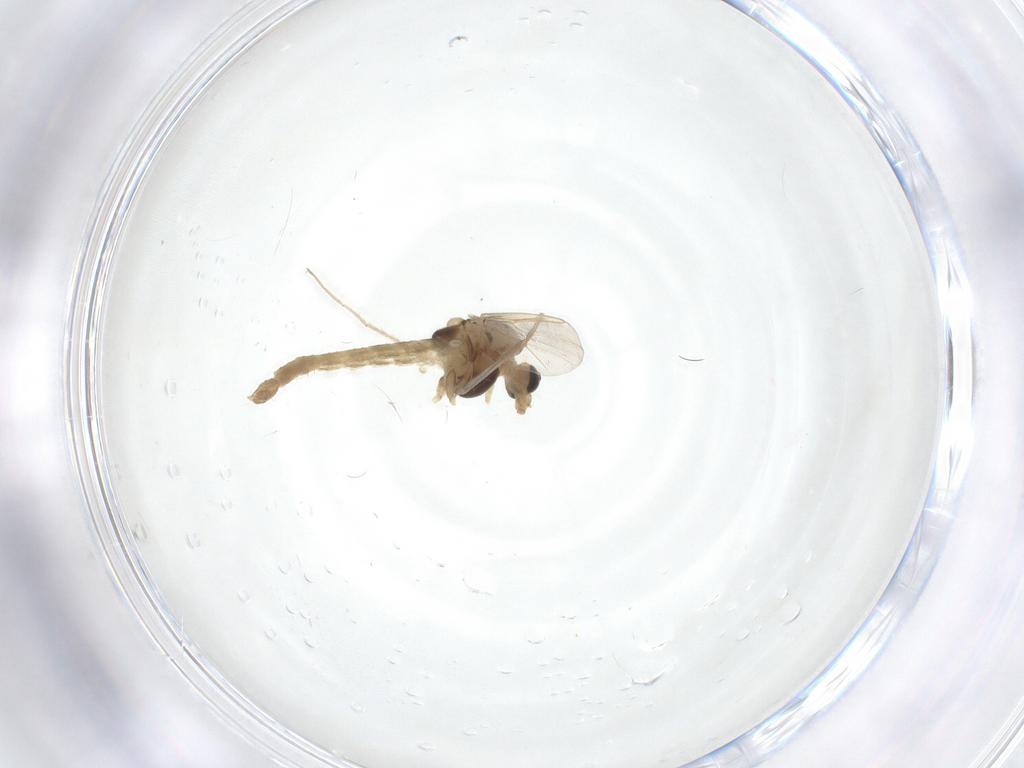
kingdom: Animalia
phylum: Arthropoda
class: Insecta
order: Diptera
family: Chironomidae
